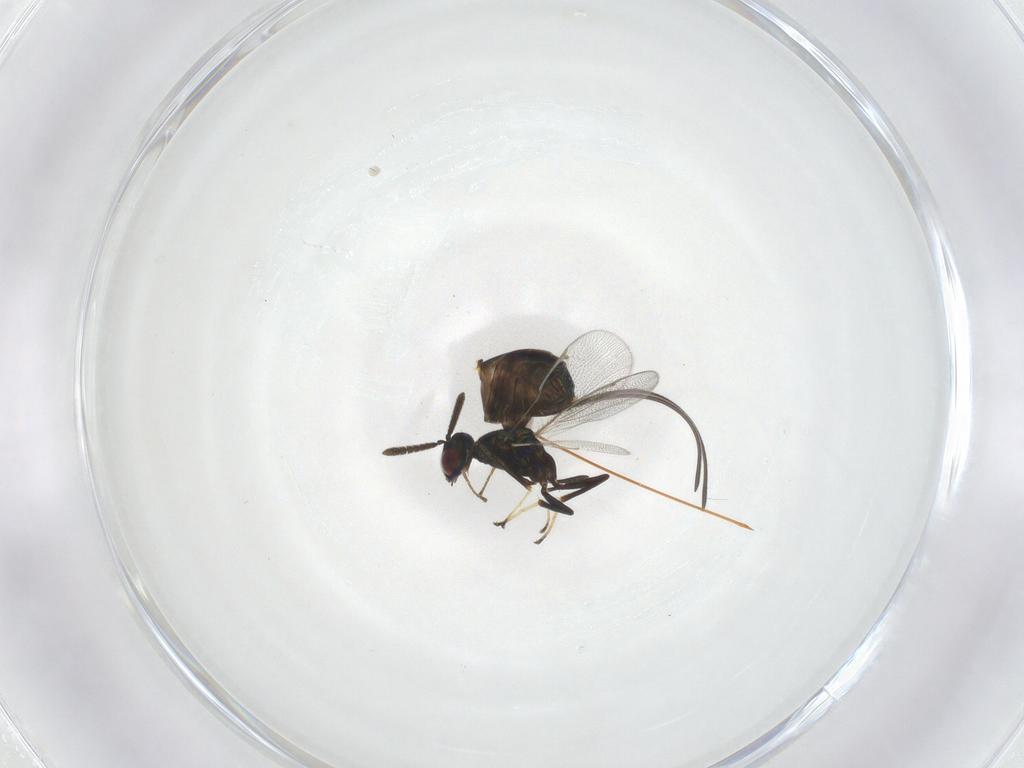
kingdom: Animalia
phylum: Arthropoda
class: Insecta
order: Hymenoptera
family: Torymidae
